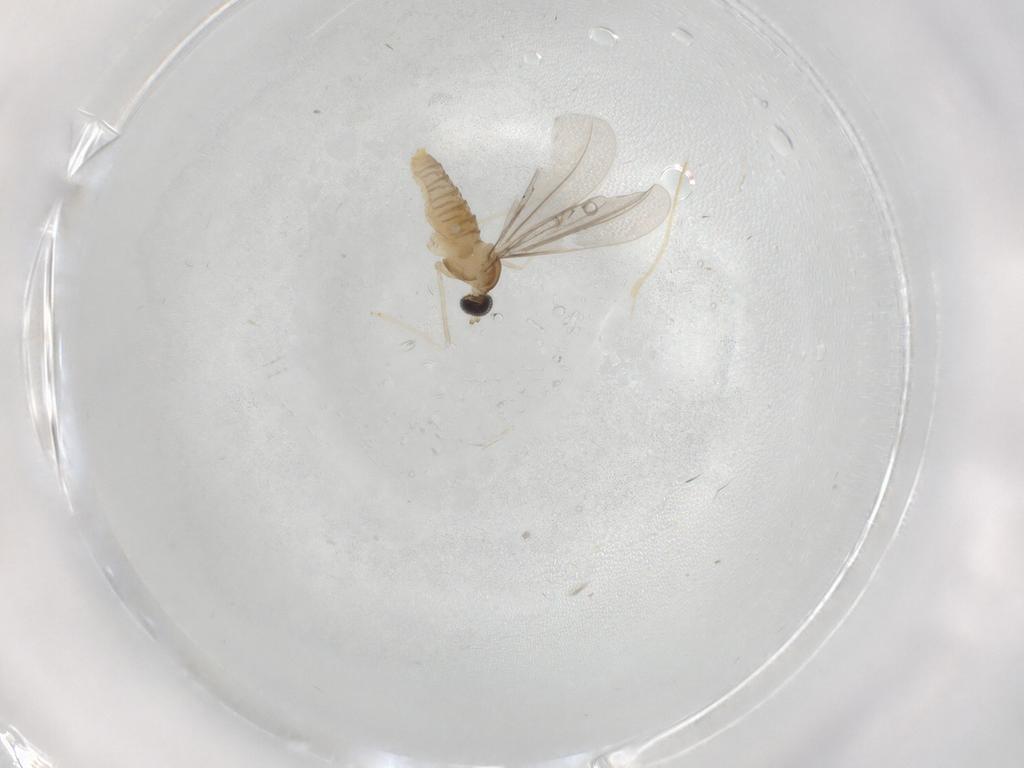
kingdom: Animalia
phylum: Arthropoda
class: Insecta
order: Diptera
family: Cecidomyiidae
